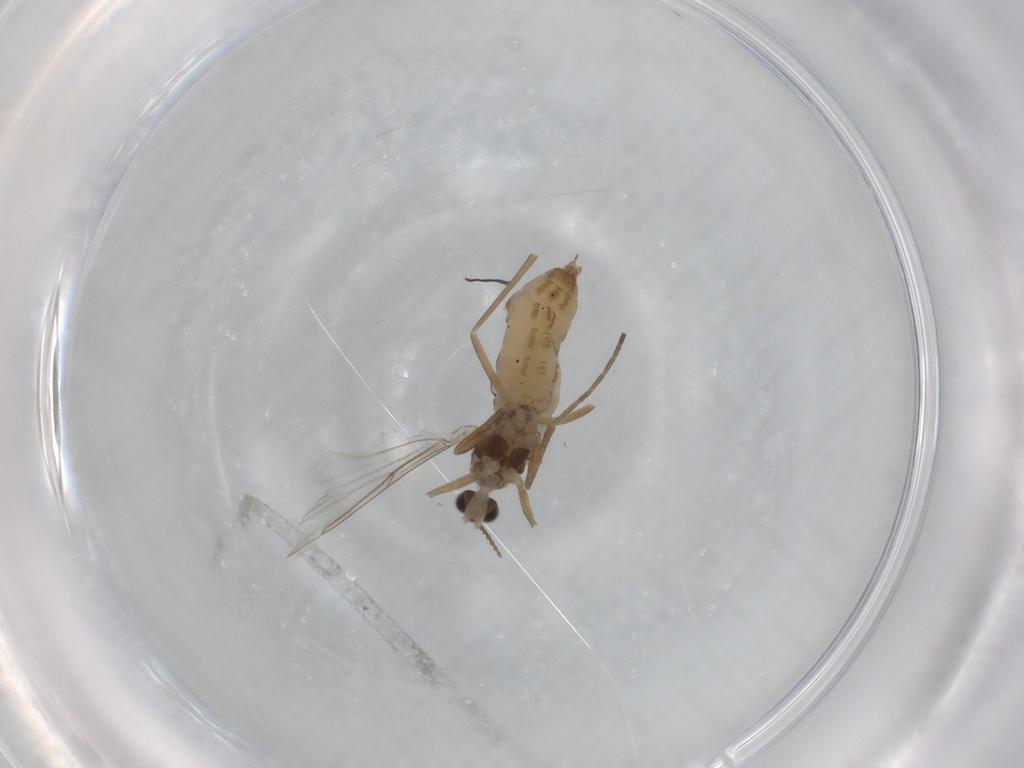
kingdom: Animalia
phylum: Arthropoda
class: Insecta
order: Diptera
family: Cecidomyiidae
